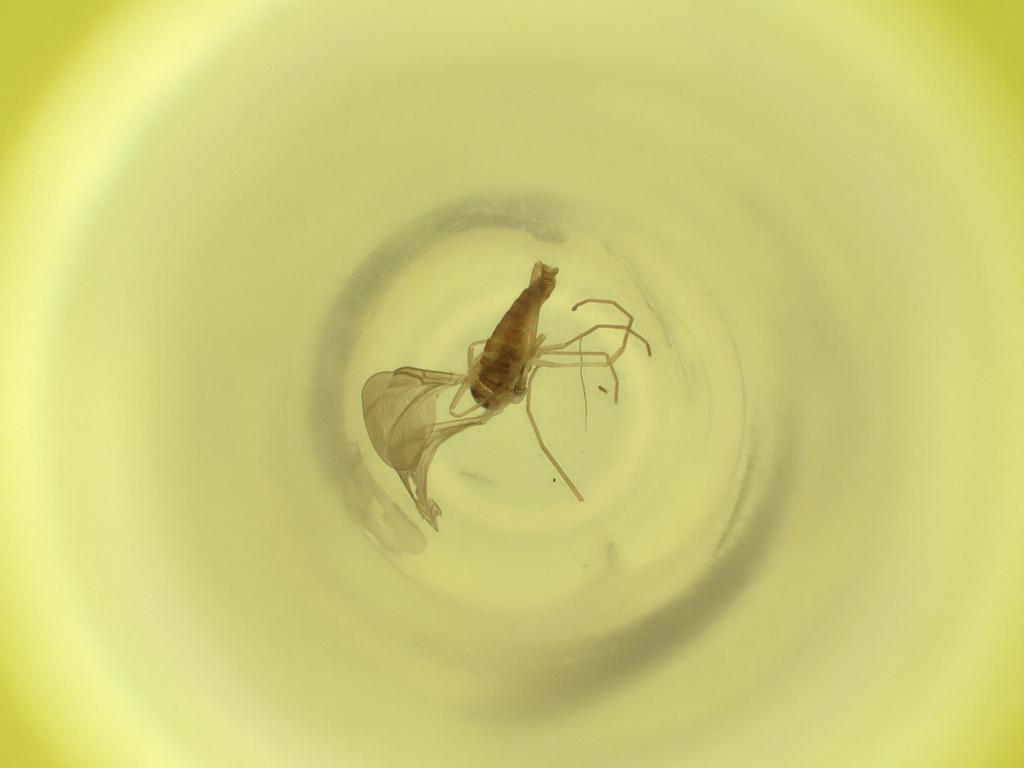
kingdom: Animalia
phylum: Arthropoda
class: Insecta
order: Diptera
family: Cecidomyiidae
